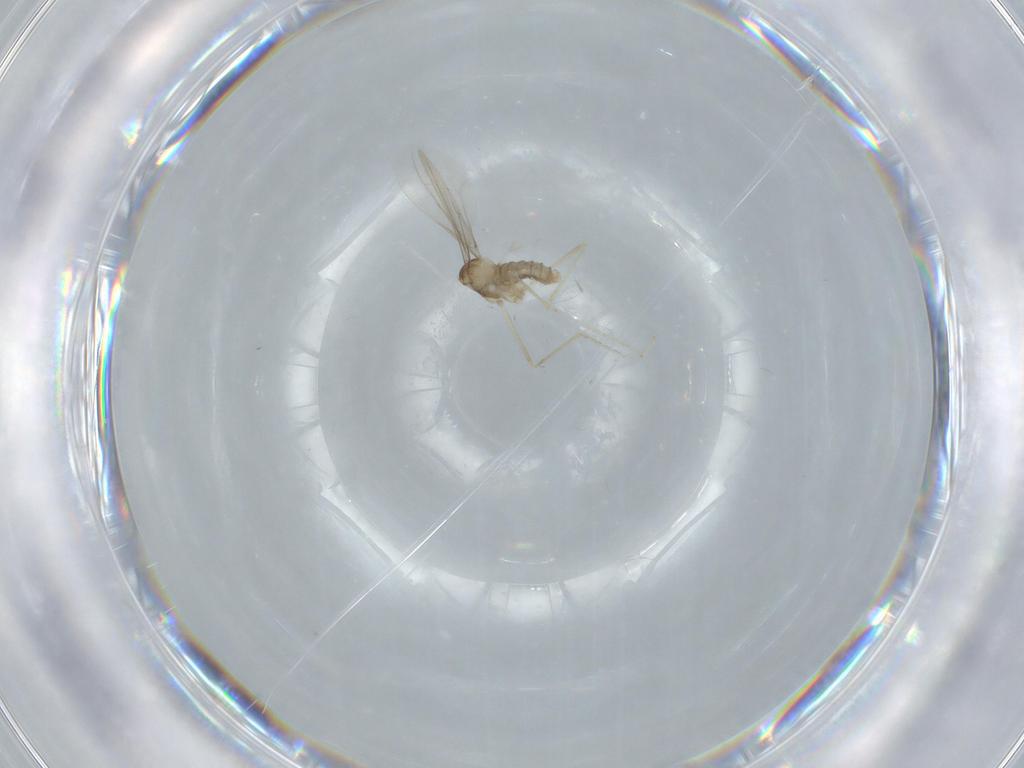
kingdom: Animalia
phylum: Arthropoda
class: Insecta
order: Diptera
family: Cecidomyiidae
